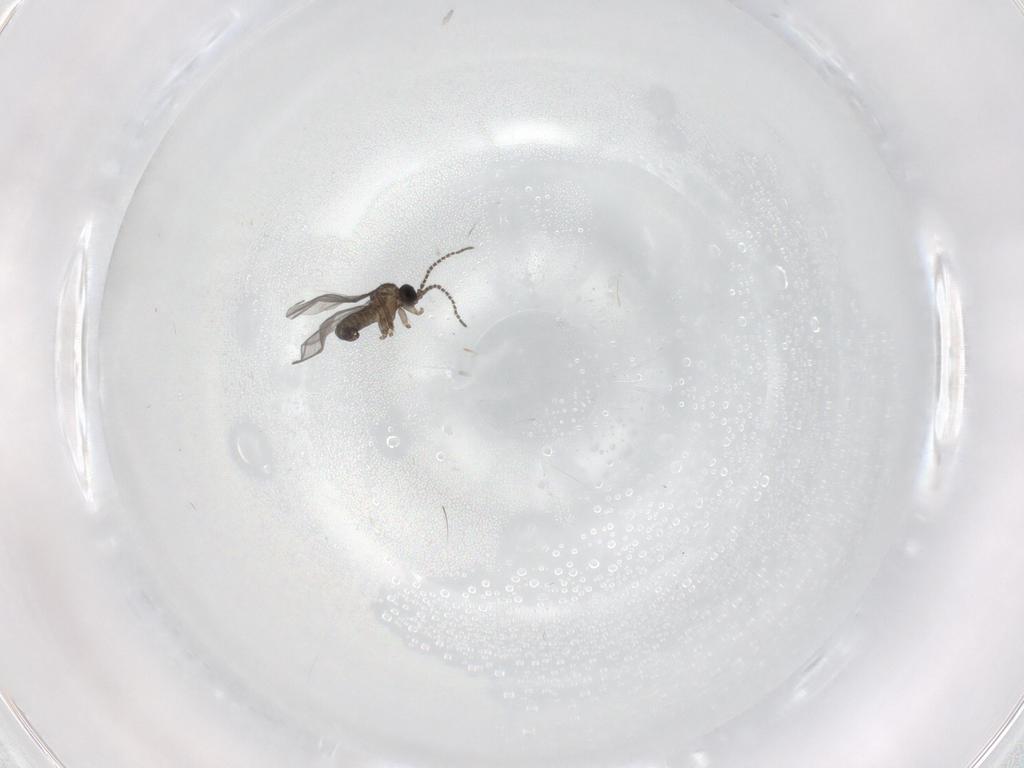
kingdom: Animalia
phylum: Arthropoda
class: Insecta
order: Diptera
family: Sciaridae
